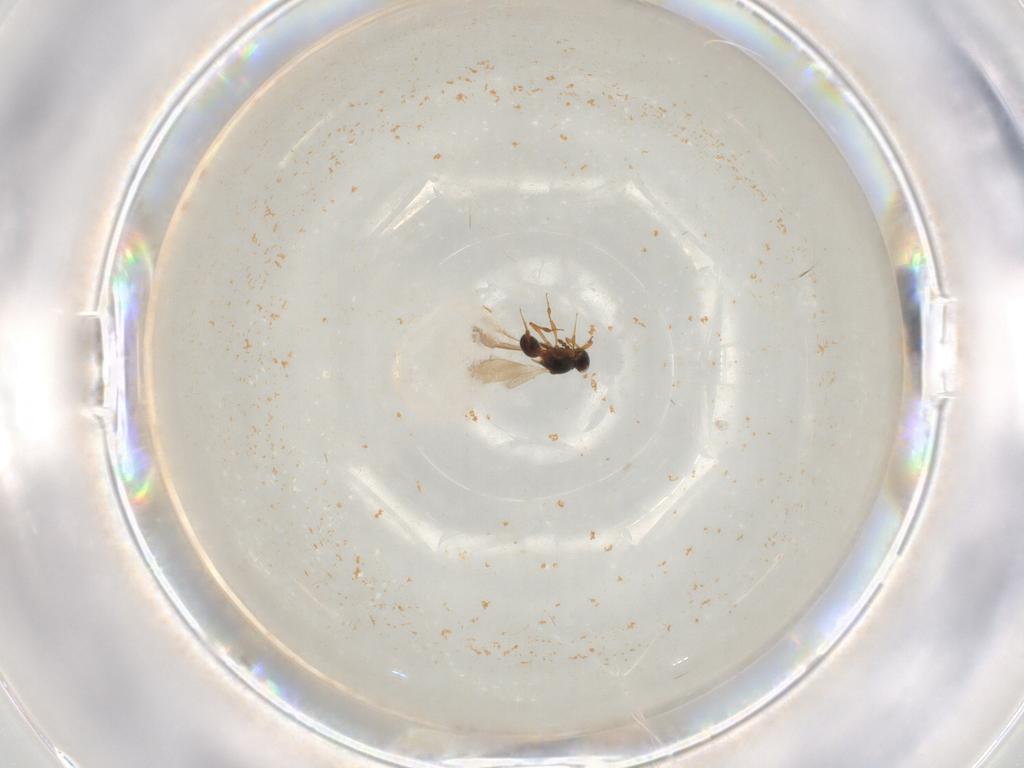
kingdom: Animalia
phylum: Arthropoda
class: Insecta
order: Hymenoptera
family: Platygastridae
